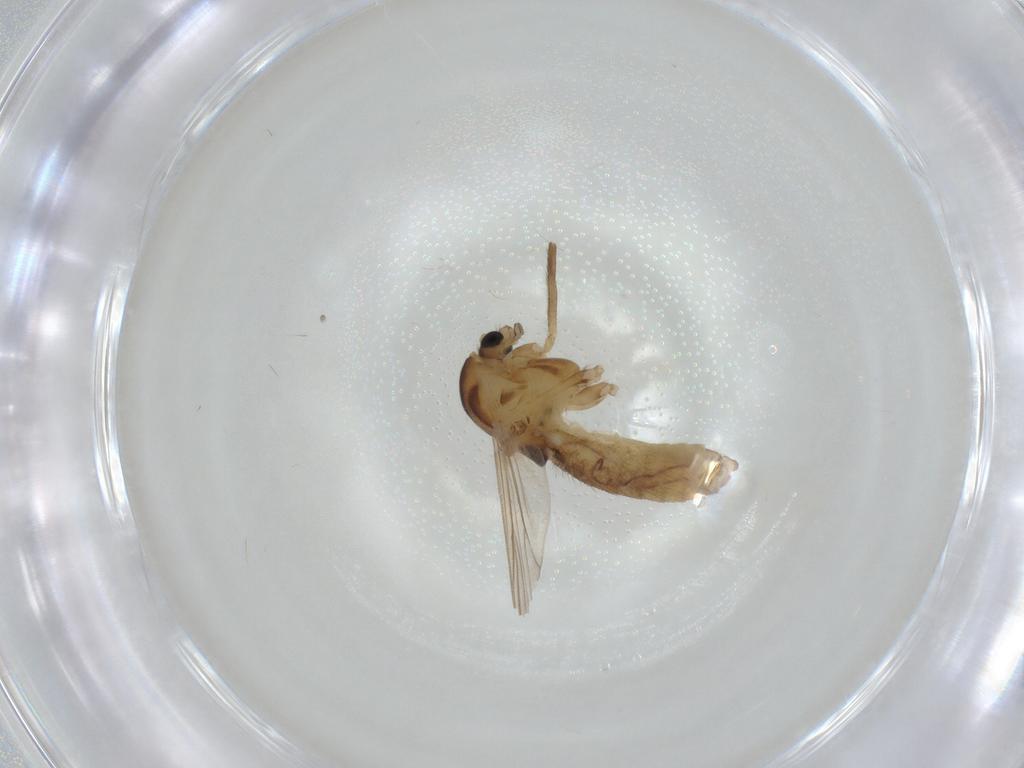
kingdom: Animalia
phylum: Arthropoda
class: Insecta
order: Diptera
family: Chironomidae
